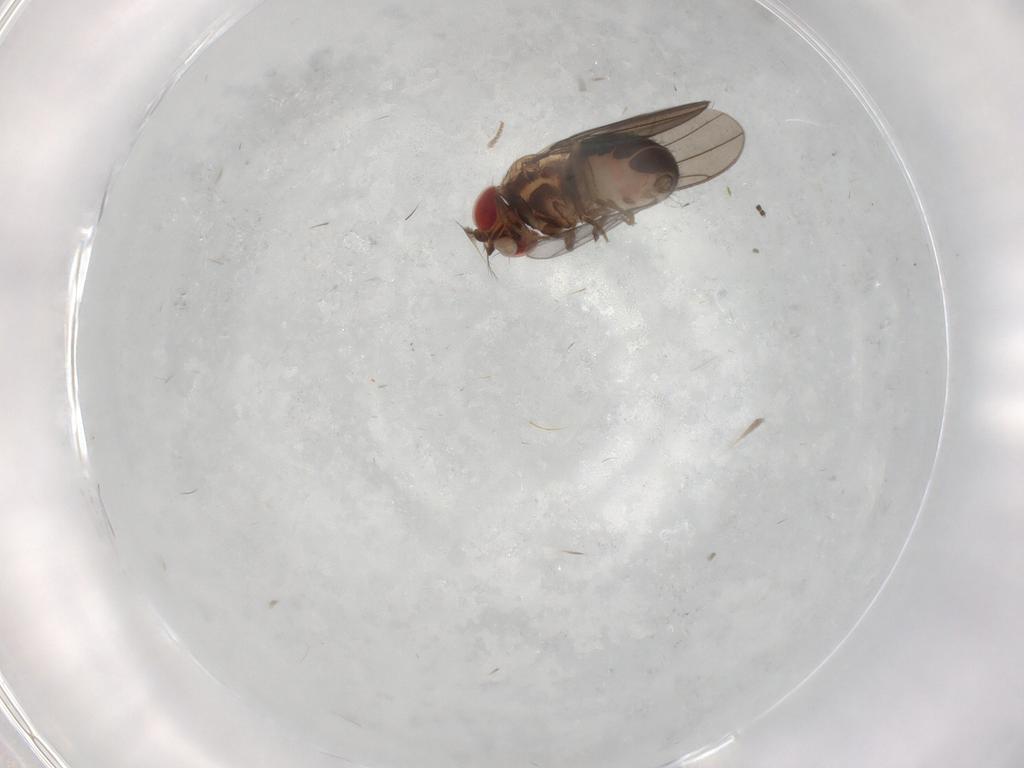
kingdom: Animalia
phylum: Arthropoda
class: Insecta
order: Diptera
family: Drosophilidae
